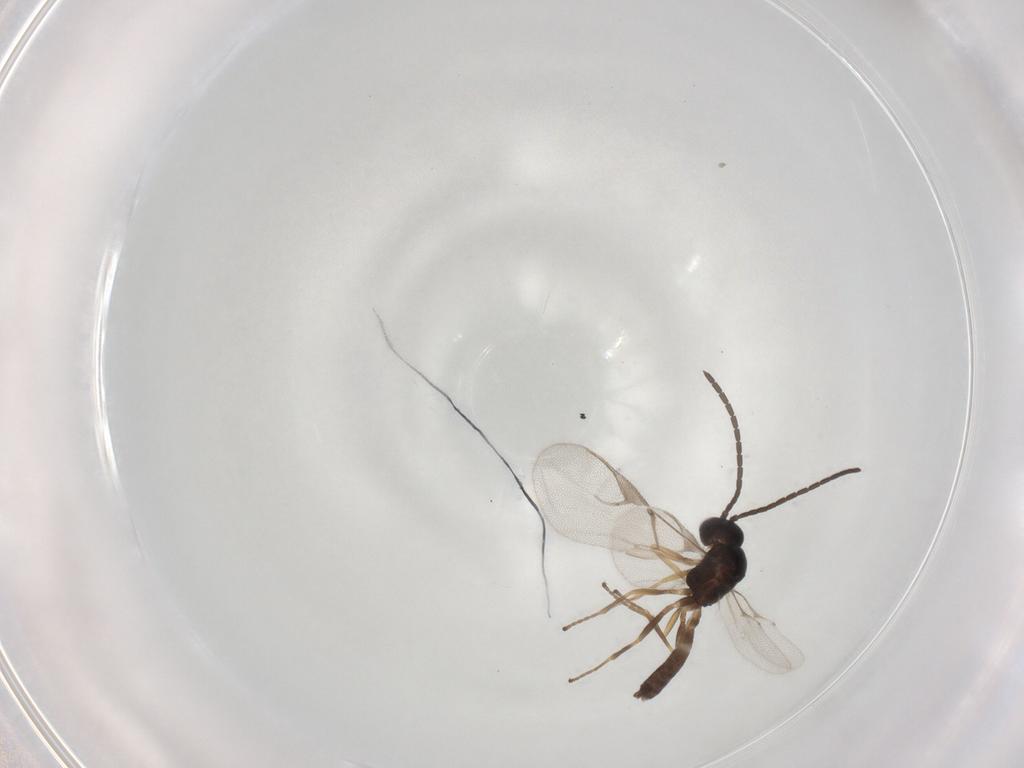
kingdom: Animalia
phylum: Arthropoda
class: Insecta
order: Hymenoptera
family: Braconidae
